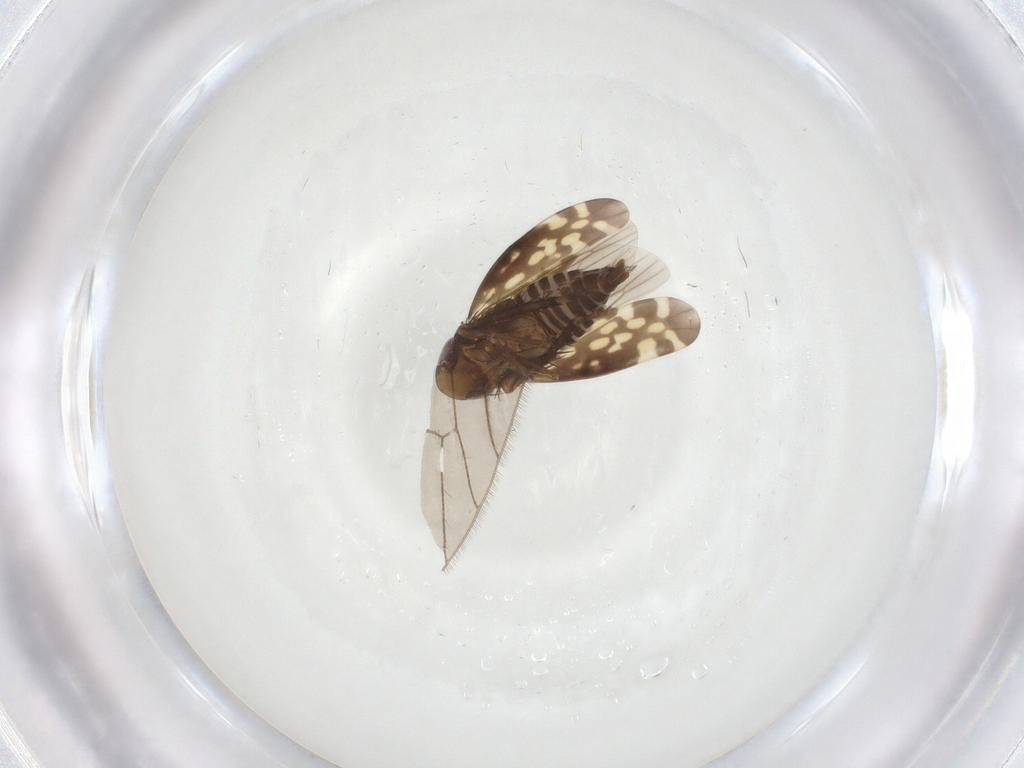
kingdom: Animalia
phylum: Arthropoda
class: Insecta
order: Hemiptera
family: Cicadellidae
